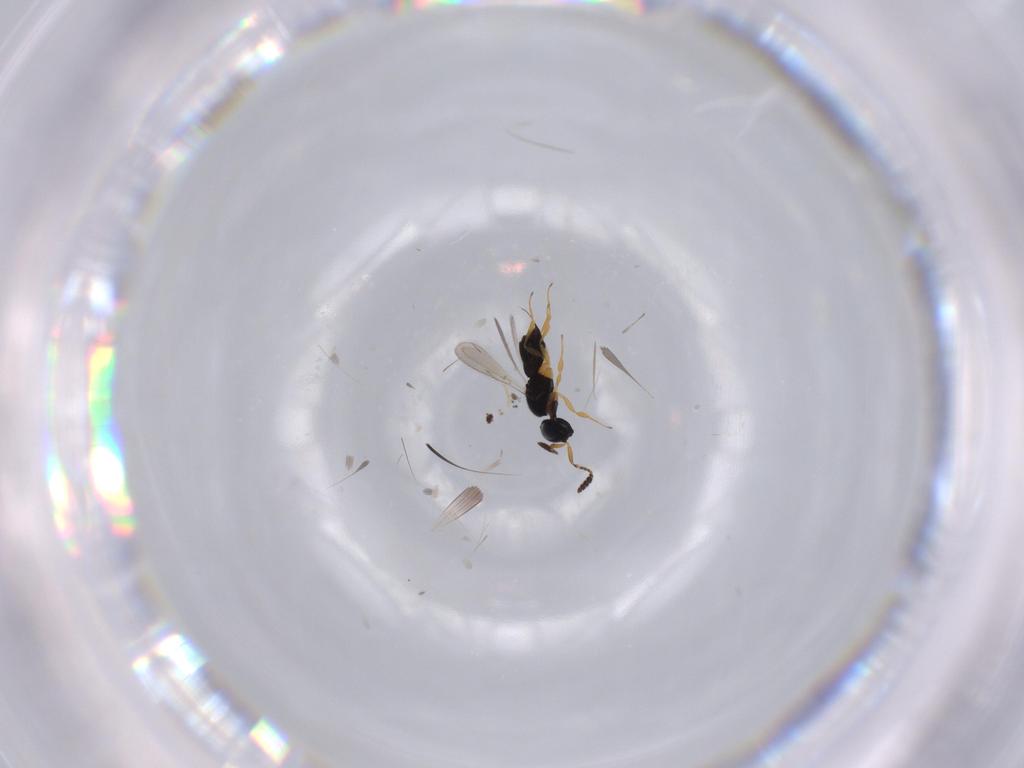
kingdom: Animalia
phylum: Arthropoda
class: Insecta
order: Hymenoptera
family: Scelionidae
